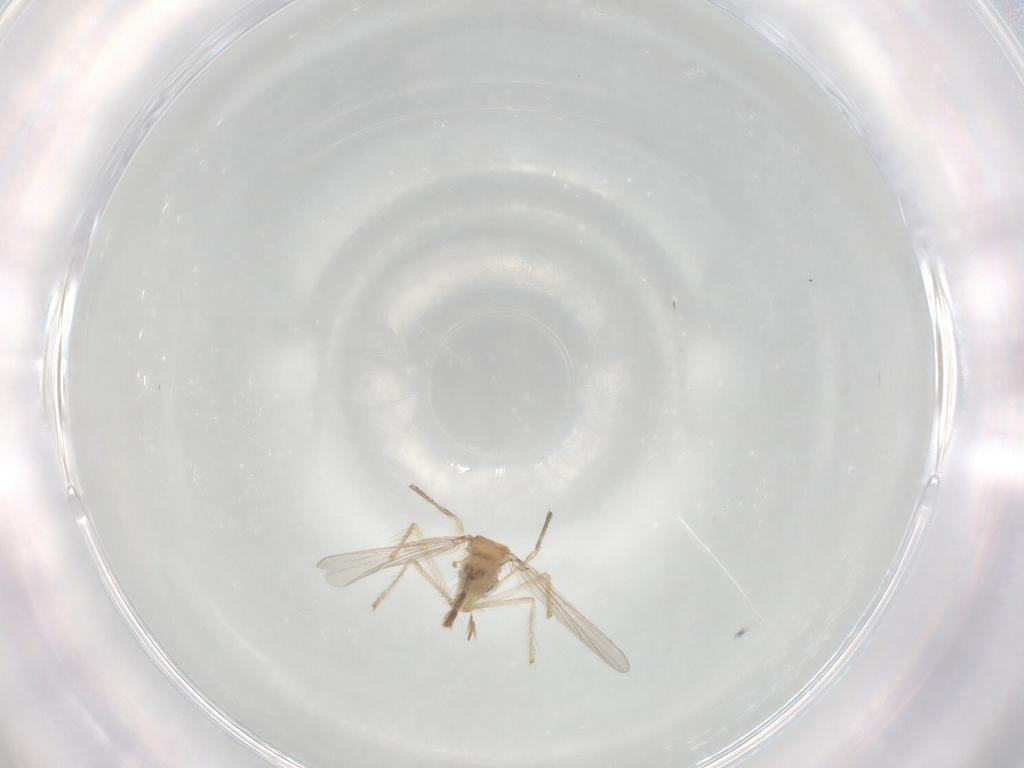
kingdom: Animalia
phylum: Arthropoda
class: Insecta
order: Diptera
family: Chironomidae
